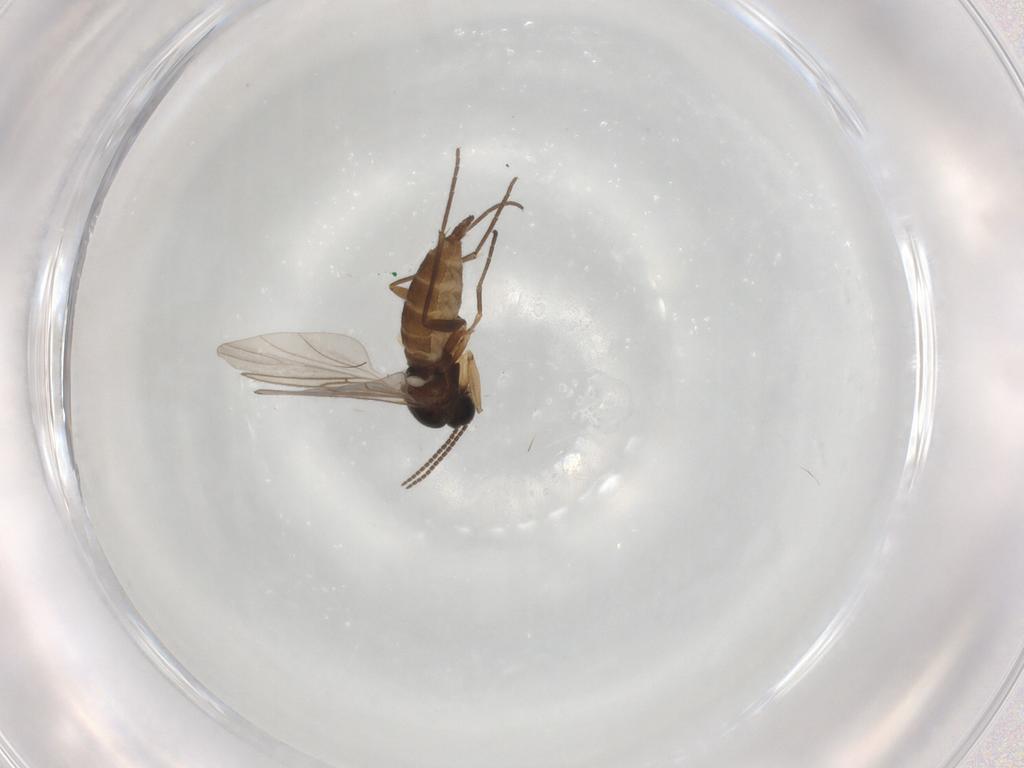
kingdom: Animalia
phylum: Arthropoda
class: Insecta
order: Diptera
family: Sciaridae
